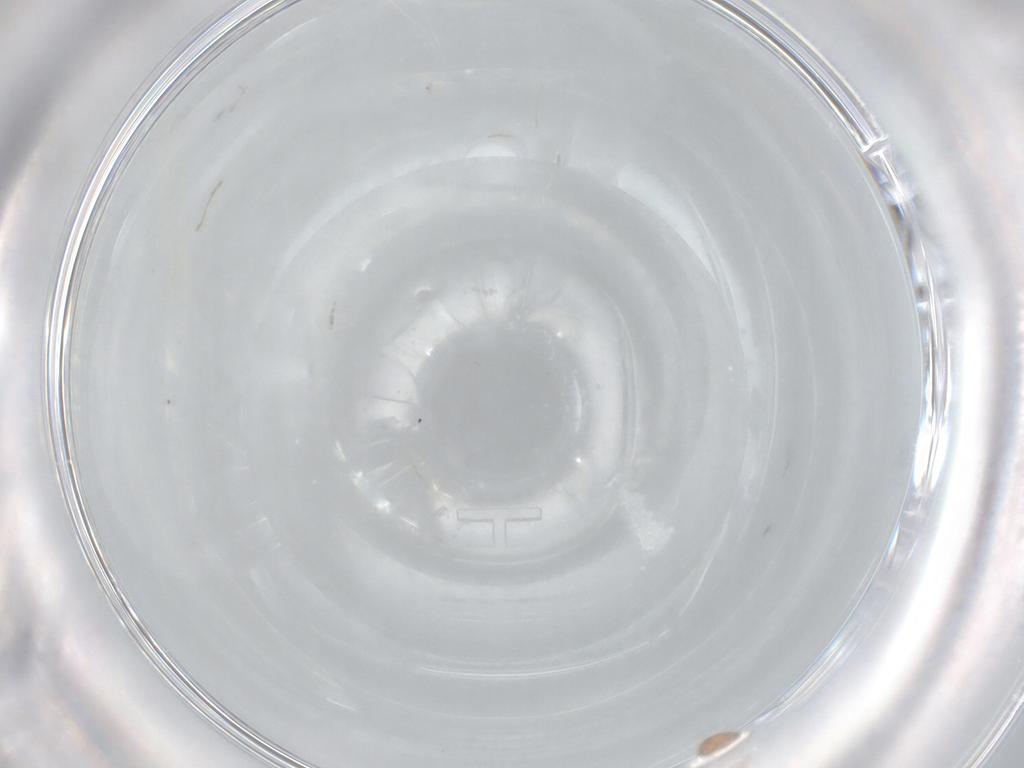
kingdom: Animalia
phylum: Arthropoda
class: Arachnida
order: Mesostigmata
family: Trematuridae
